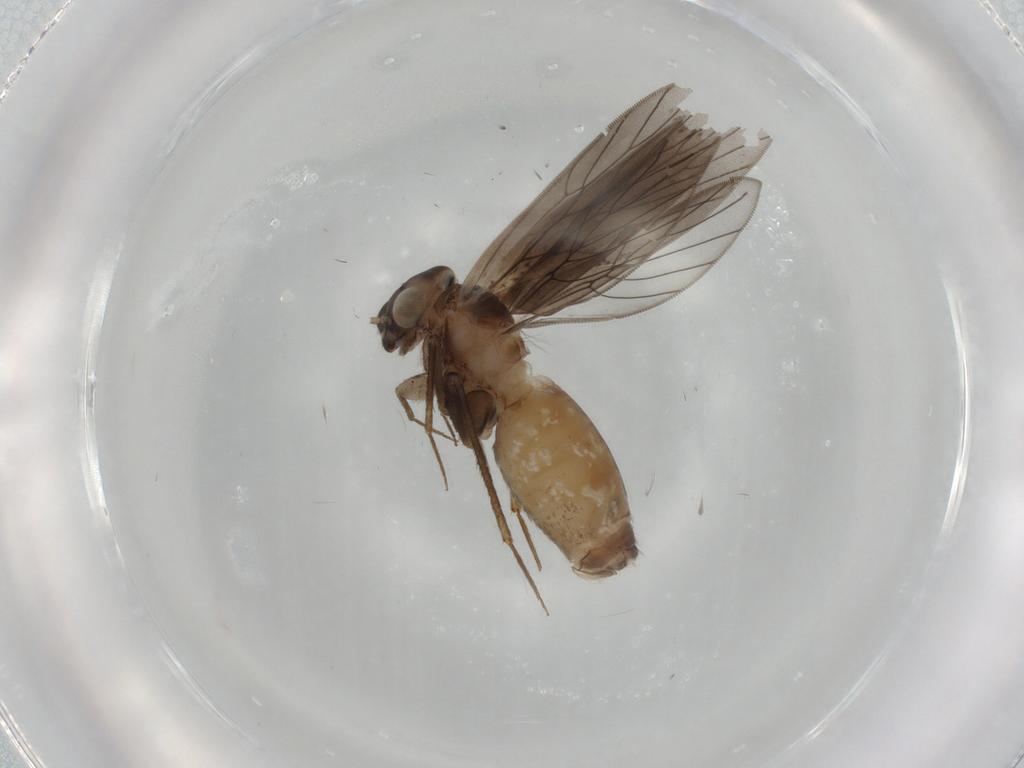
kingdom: Animalia
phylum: Arthropoda
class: Insecta
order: Psocodea
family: Lepidopsocidae
